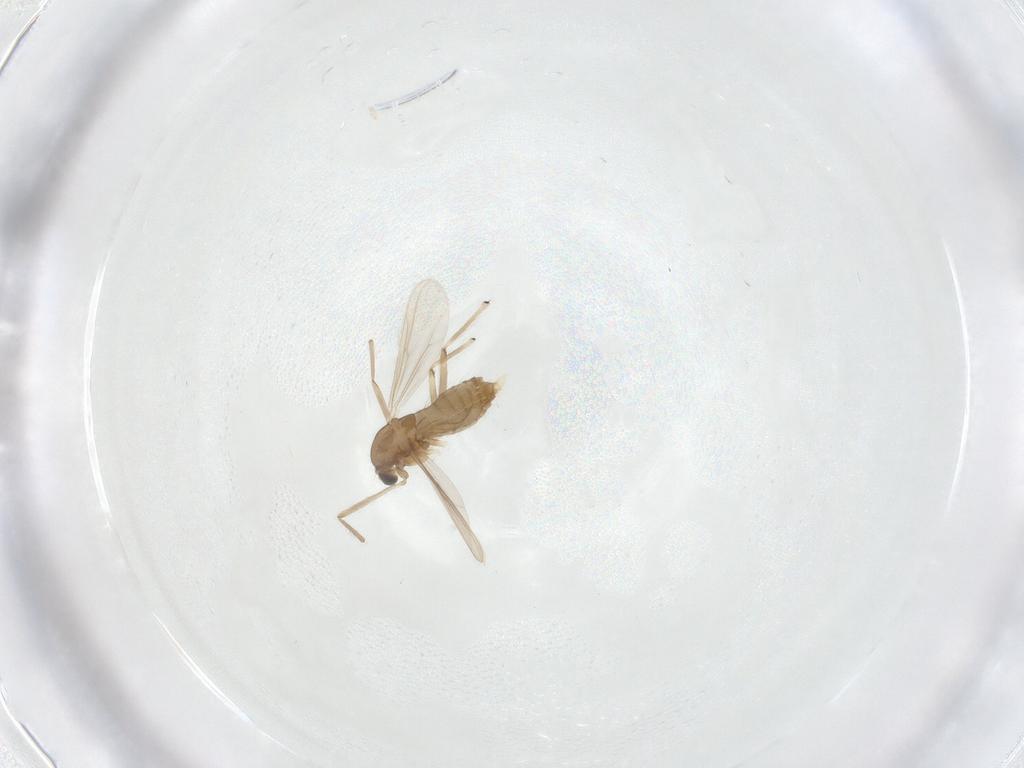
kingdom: Animalia
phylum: Arthropoda
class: Insecta
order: Diptera
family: Chironomidae
